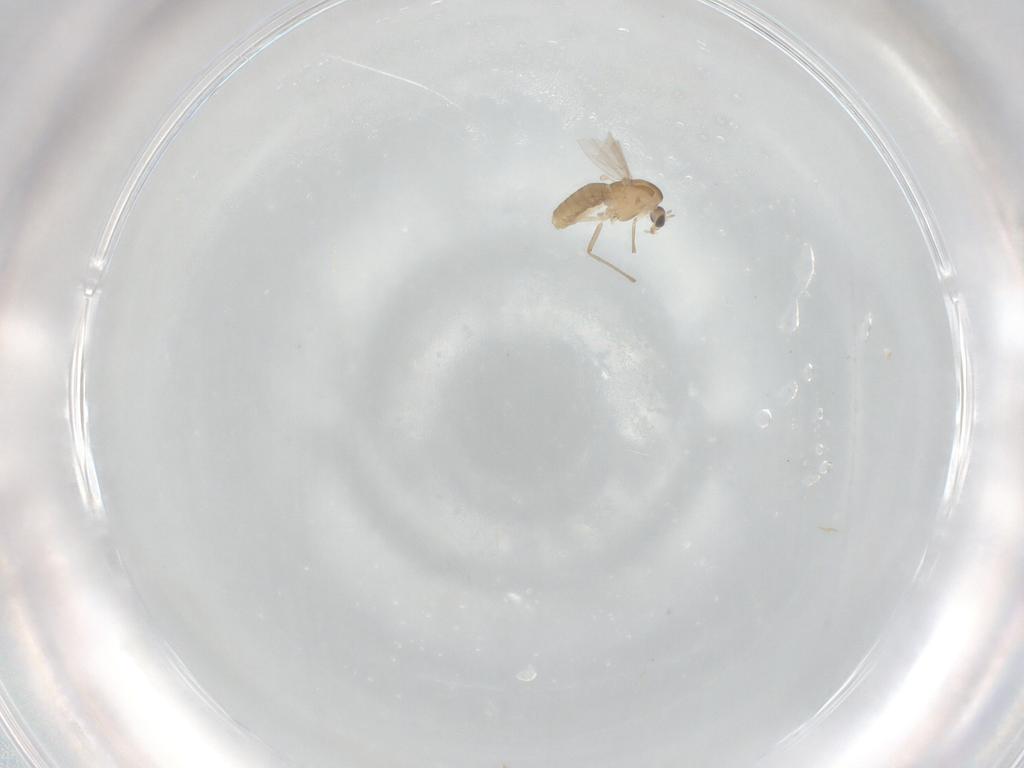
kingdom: Animalia
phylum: Arthropoda
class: Insecta
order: Diptera
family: Chironomidae
